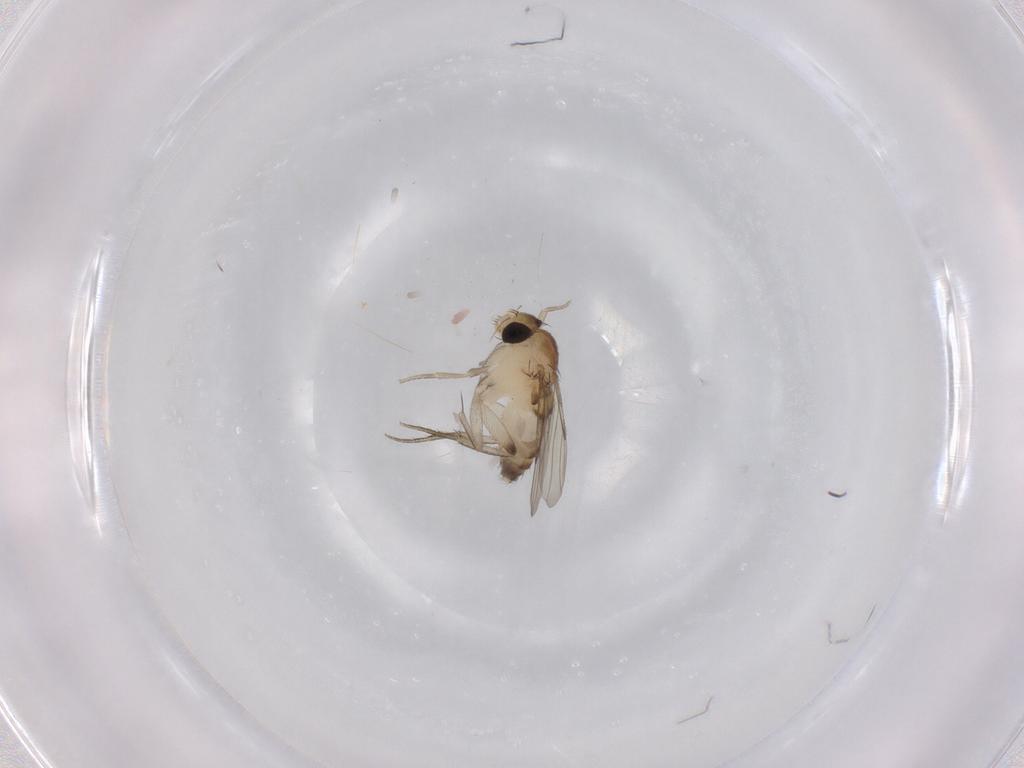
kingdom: Animalia
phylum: Arthropoda
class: Insecta
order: Diptera
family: Phoridae
